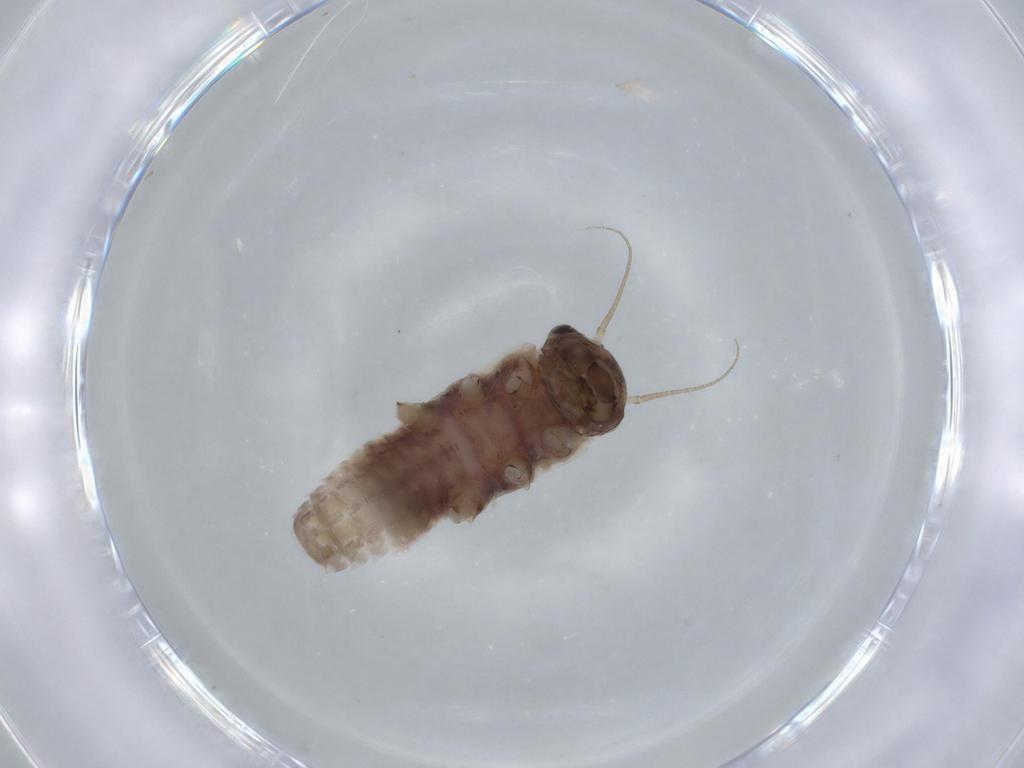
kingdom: Animalia
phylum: Arthropoda
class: Insecta
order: Ephemeroptera
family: Ephemerellidae
